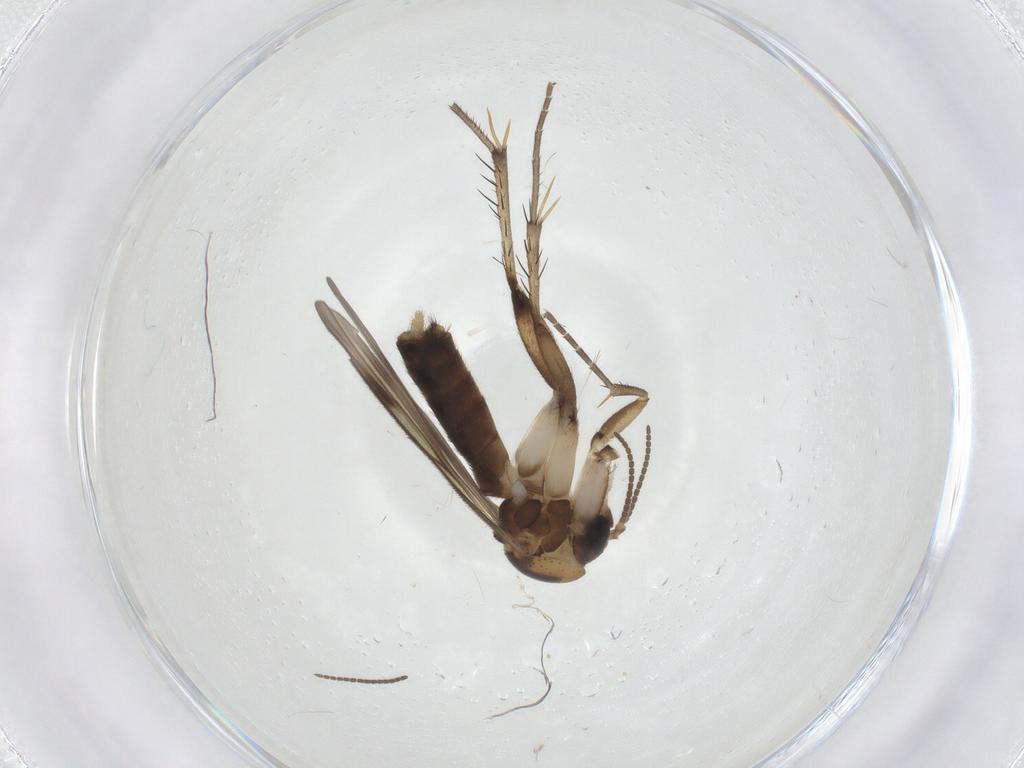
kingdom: Animalia
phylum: Arthropoda
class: Insecta
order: Diptera
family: Mycetophilidae
